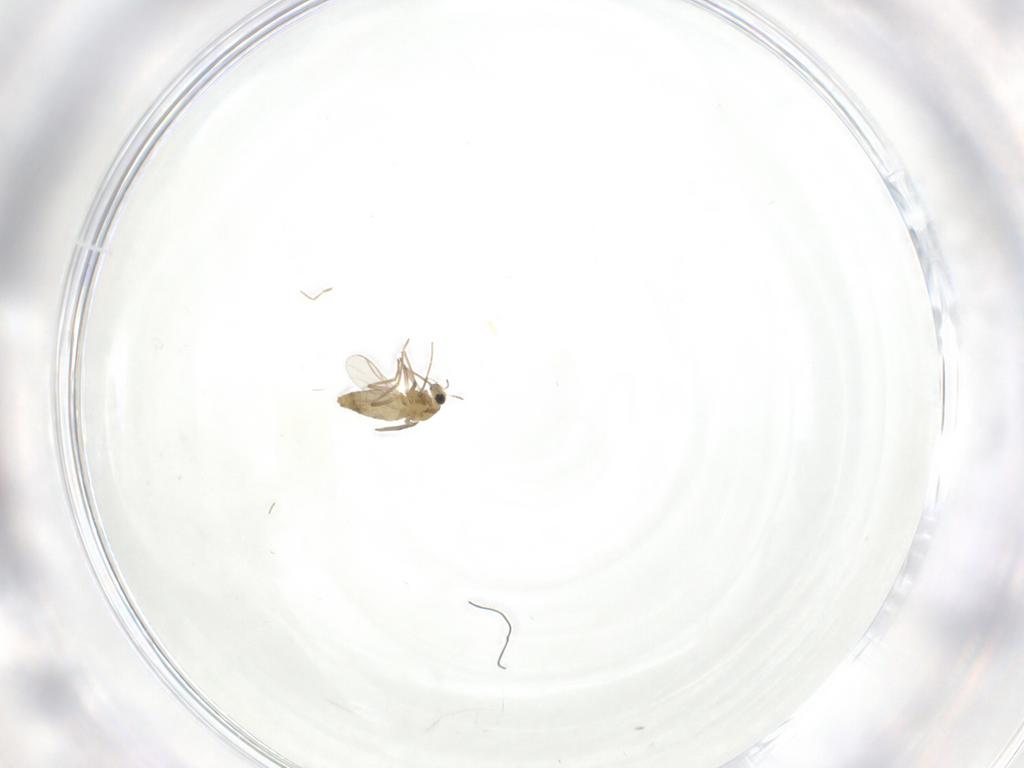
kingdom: Animalia
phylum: Arthropoda
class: Insecta
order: Diptera
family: Chironomidae
